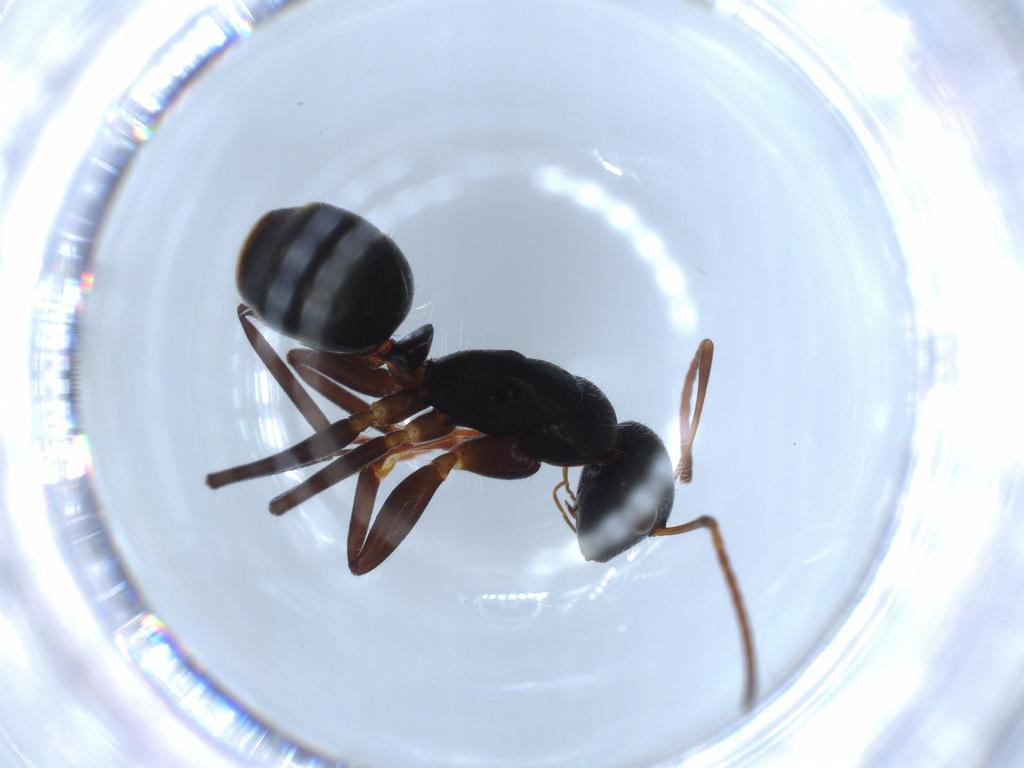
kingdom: Animalia
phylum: Arthropoda
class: Insecta
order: Hymenoptera
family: Formicidae
